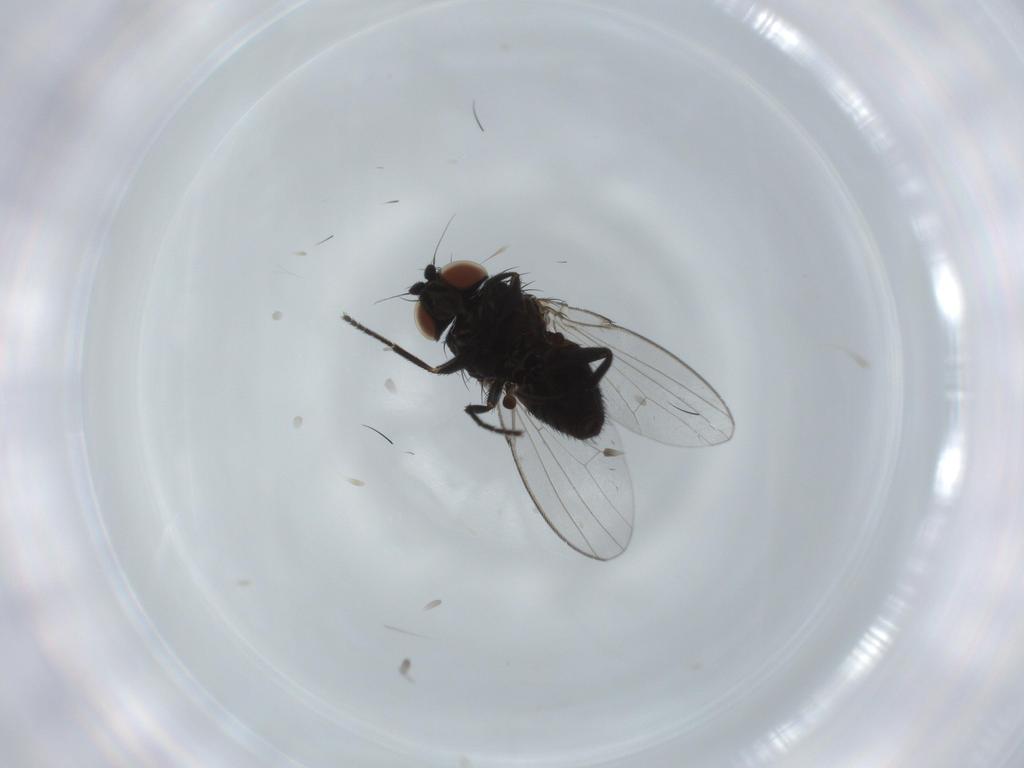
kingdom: Animalia
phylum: Arthropoda
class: Insecta
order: Diptera
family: Milichiidae
